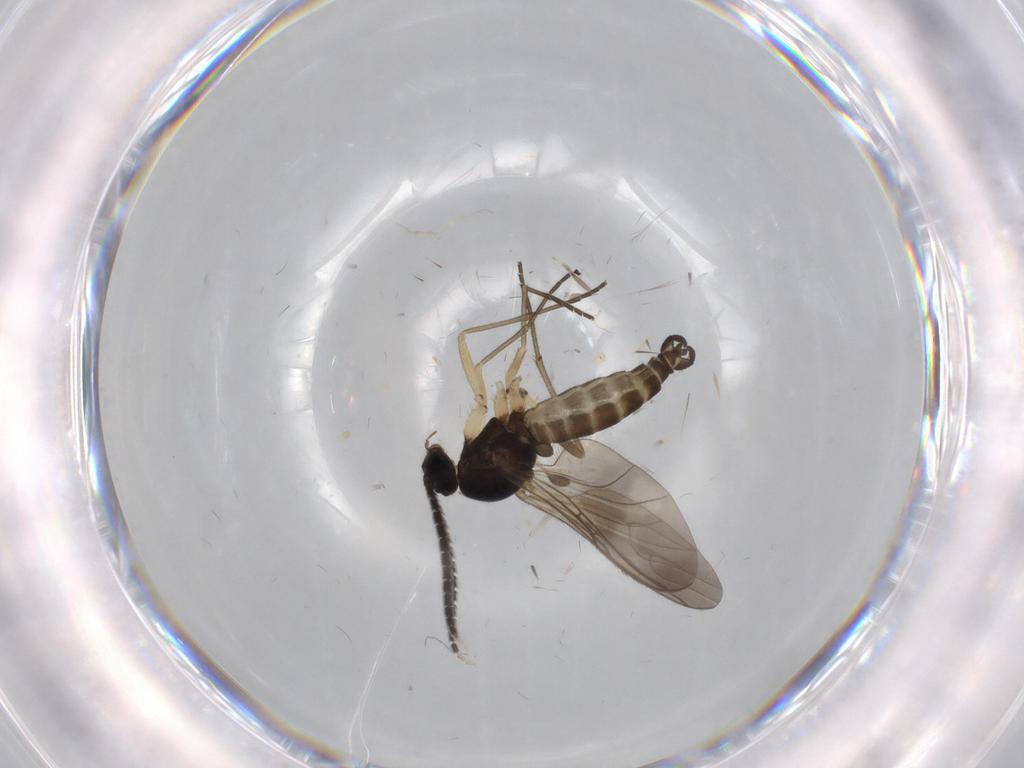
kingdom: Animalia
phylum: Arthropoda
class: Insecta
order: Diptera
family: Sciaridae
